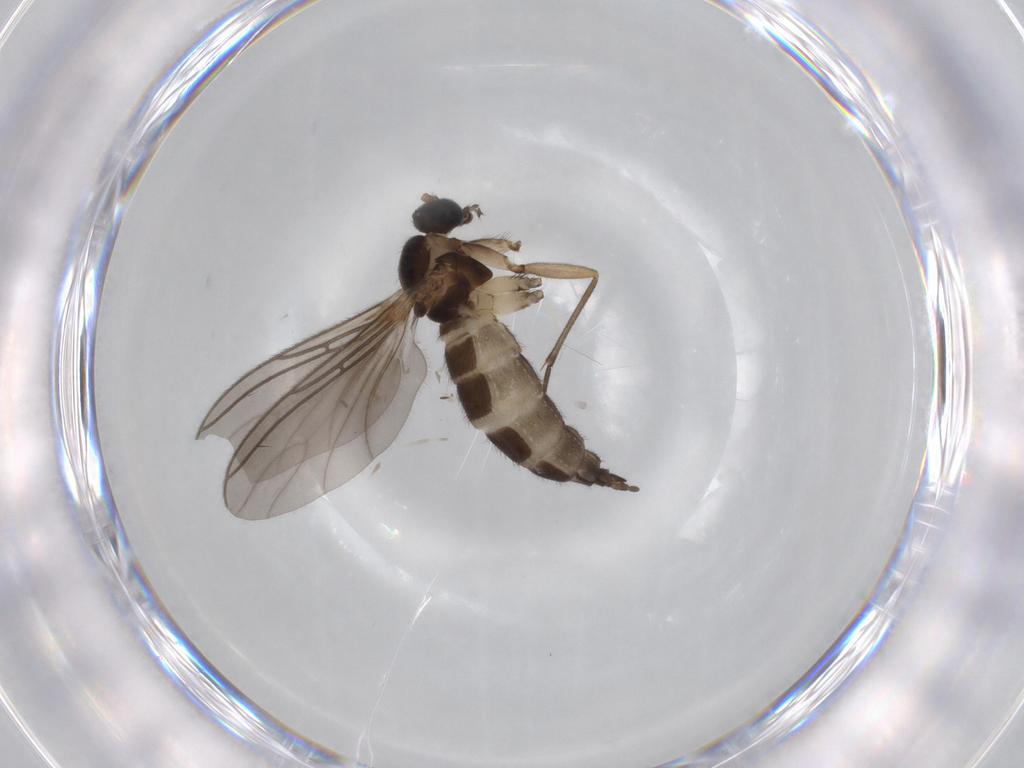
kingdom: Animalia
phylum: Arthropoda
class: Insecta
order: Diptera
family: Sciaridae
